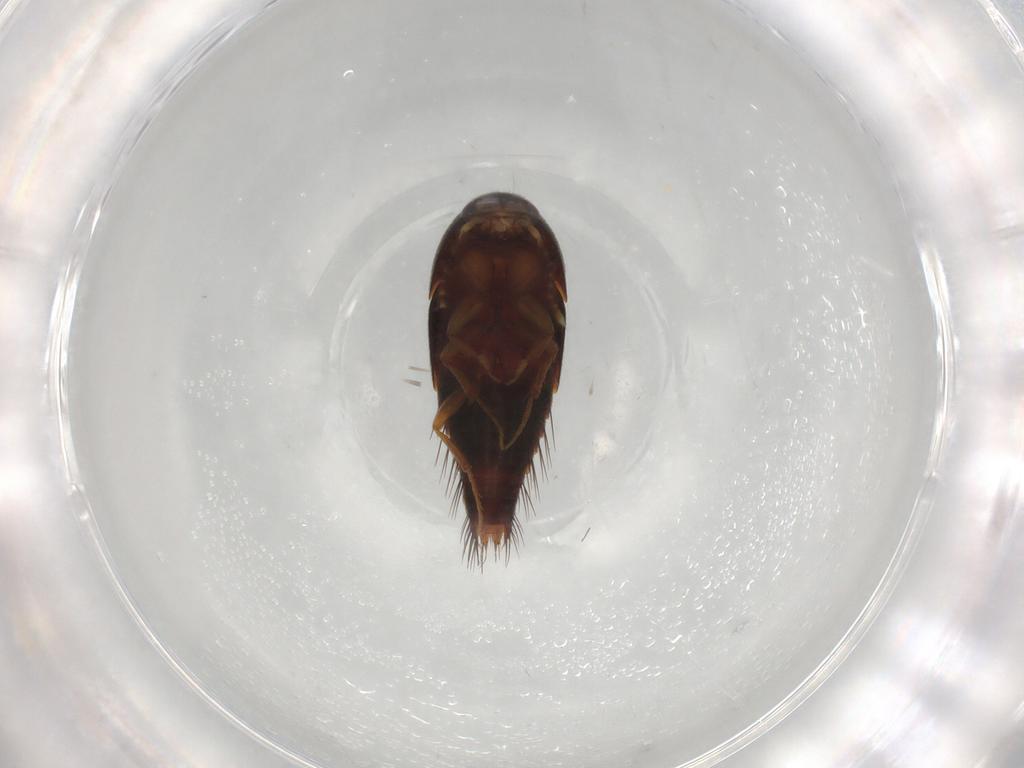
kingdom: Animalia
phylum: Arthropoda
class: Insecta
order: Coleoptera
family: Staphylinidae
